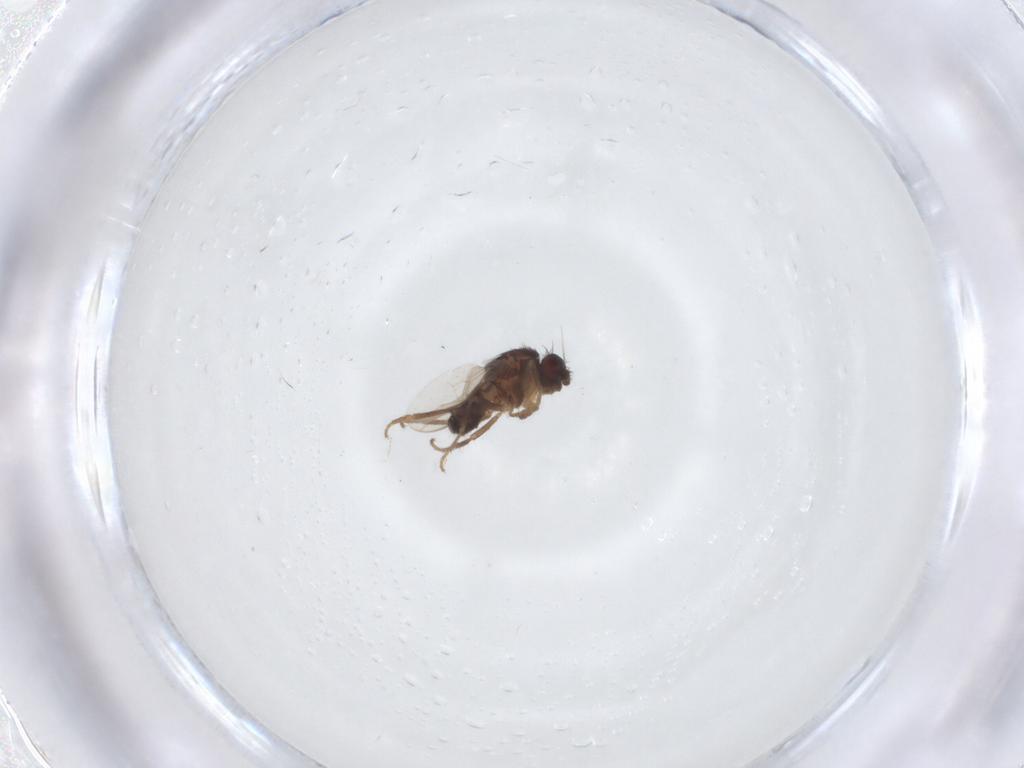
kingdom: Animalia
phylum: Arthropoda
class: Insecta
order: Diptera
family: Sphaeroceridae
